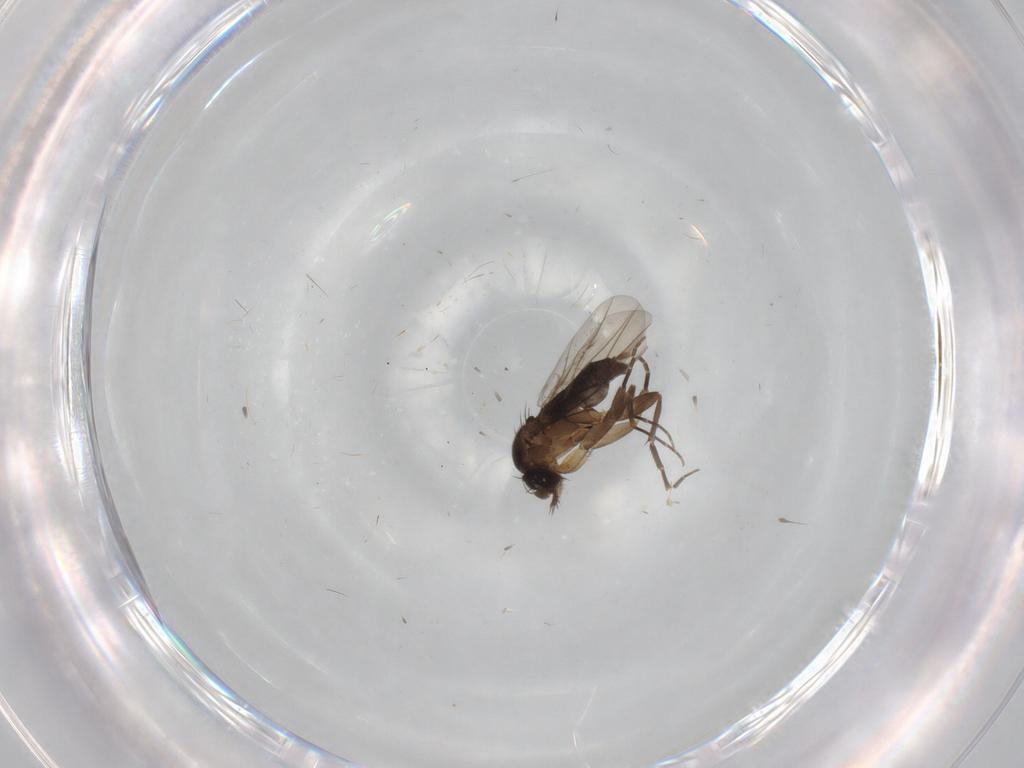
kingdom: Animalia
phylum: Arthropoda
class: Insecta
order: Diptera
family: Phoridae
